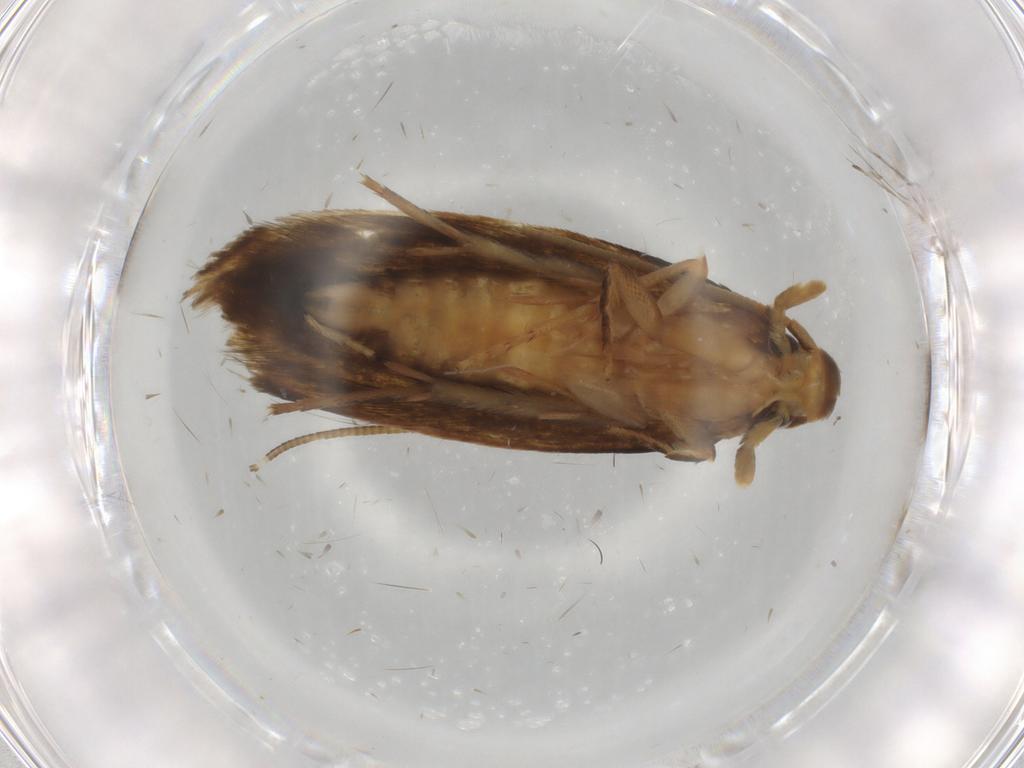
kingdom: Animalia
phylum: Arthropoda
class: Insecta
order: Lepidoptera
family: Tineidae
